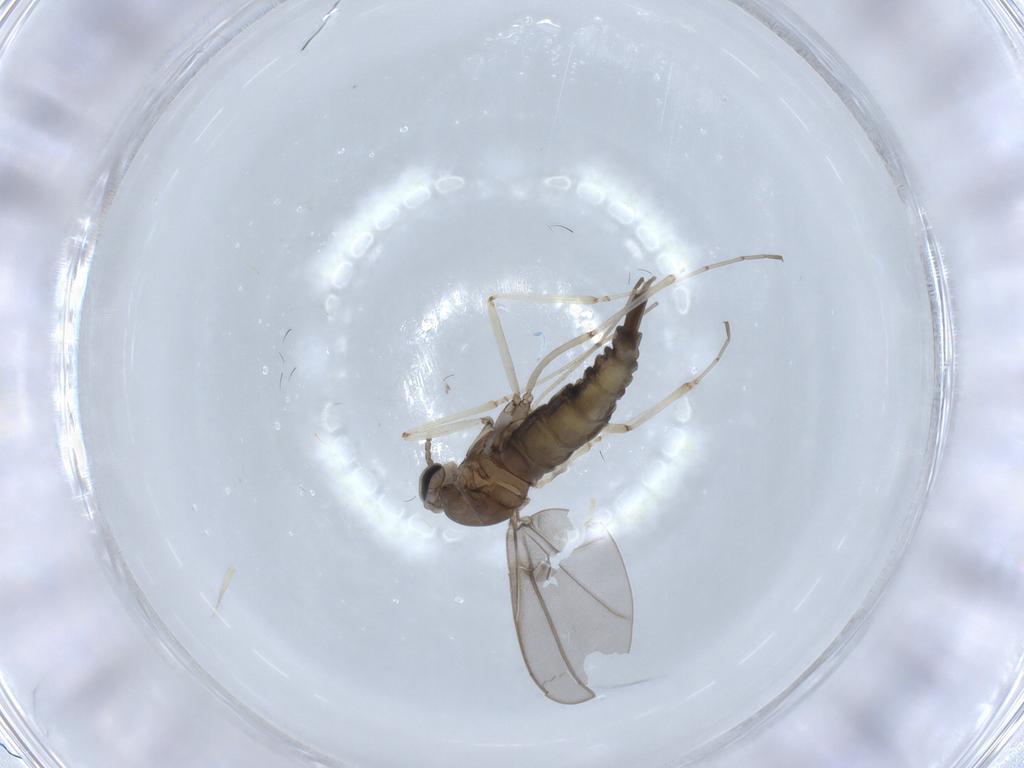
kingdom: Animalia
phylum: Arthropoda
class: Insecta
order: Diptera
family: Cecidomyiidae
